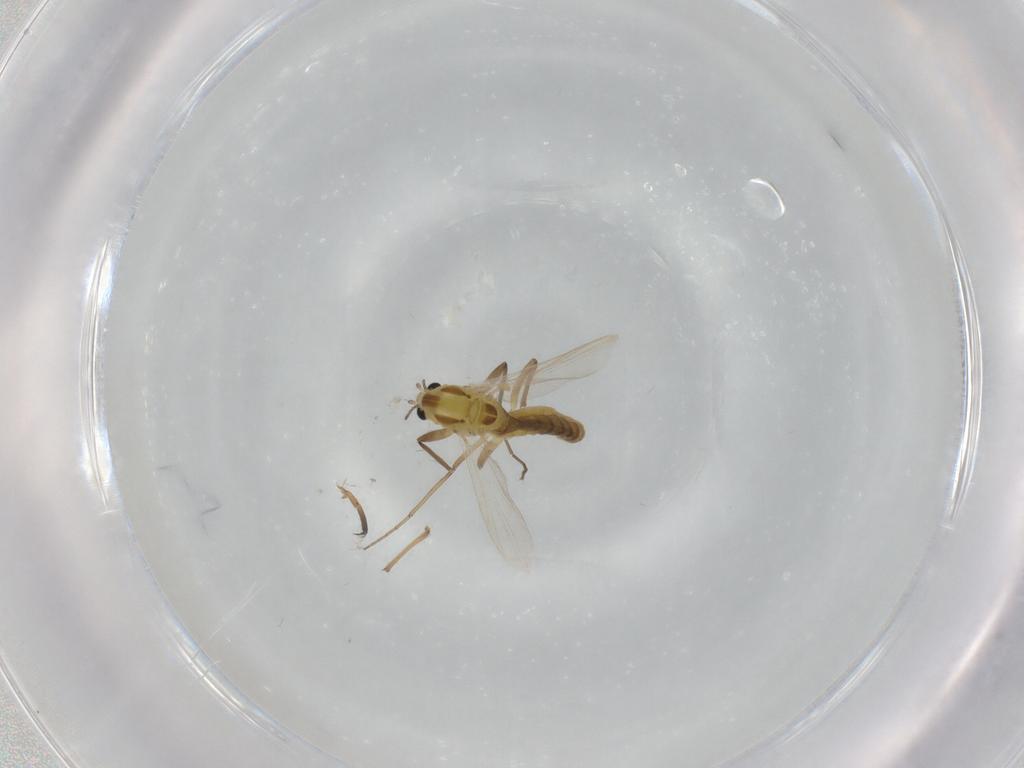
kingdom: Animalia
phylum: Arthropoda
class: Insecta
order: Diptera
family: Chironomidae
